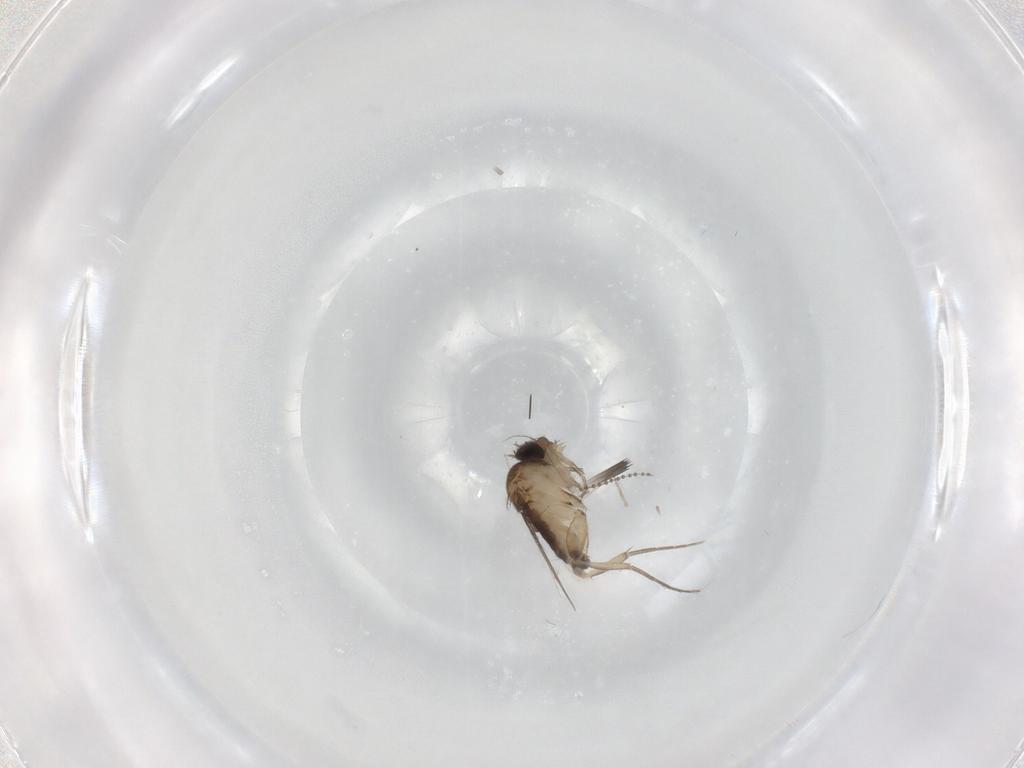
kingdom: Animalia
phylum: Arthropoda
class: Insecta
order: Diptera
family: Phoridae
